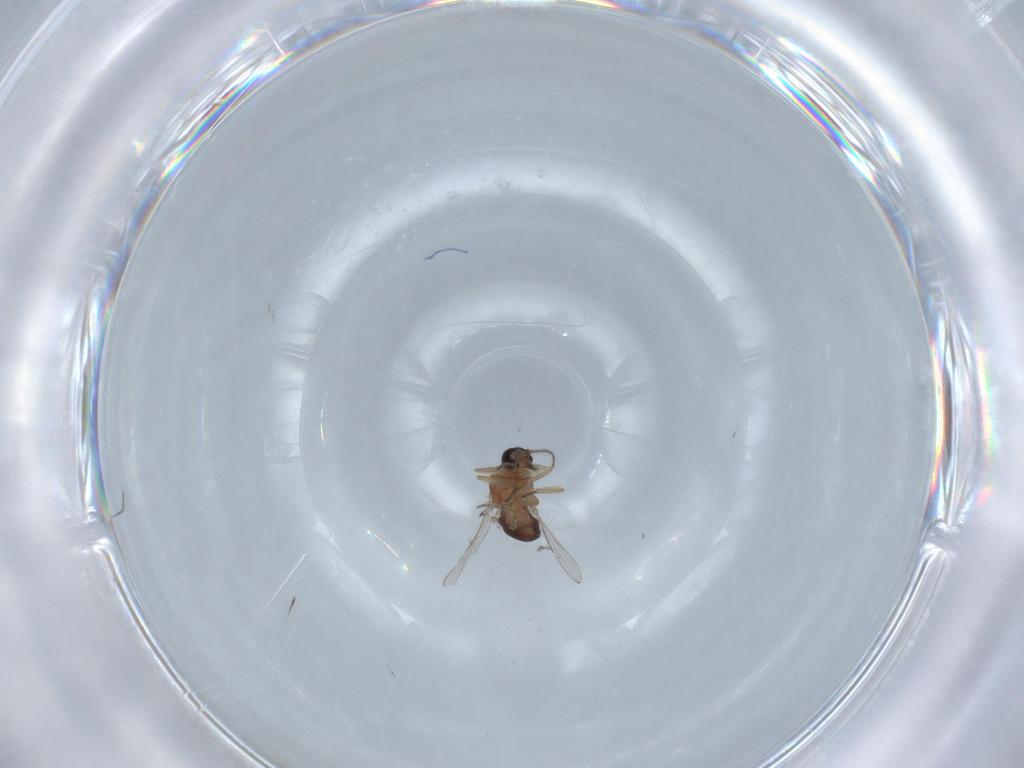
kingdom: Animalia
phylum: Arthropoda
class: Insecta
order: Diptera
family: Ceratopogonidae
